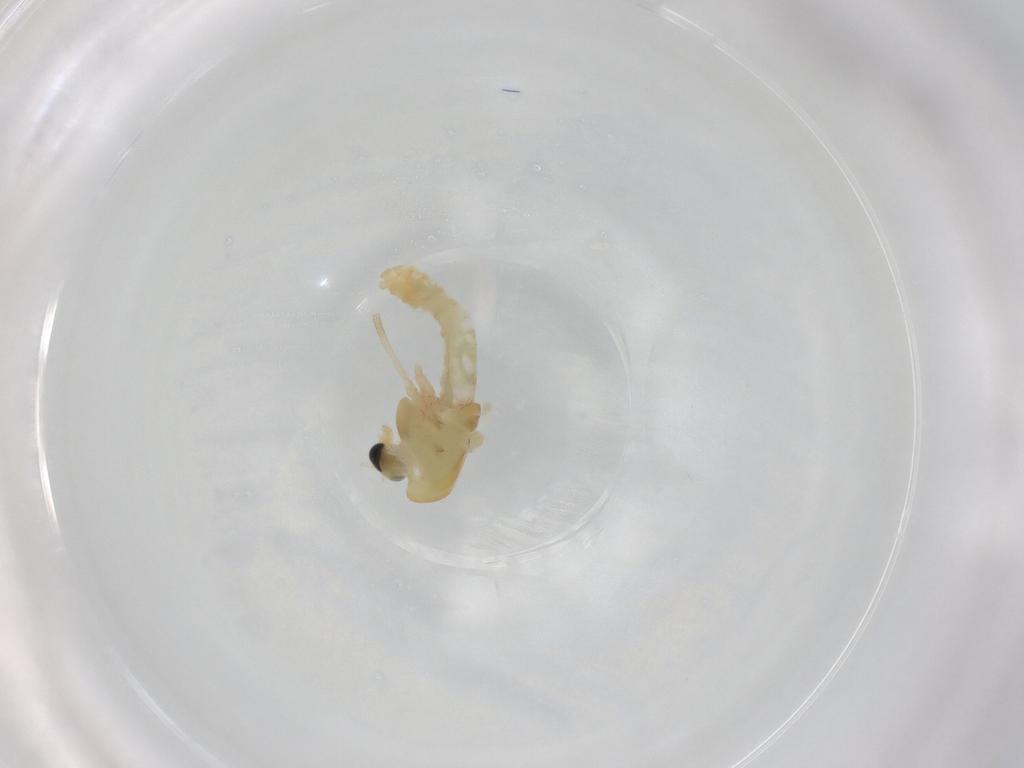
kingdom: Animalia
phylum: Arthropoda
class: Insecta
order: Diptera
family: Chironomidae
